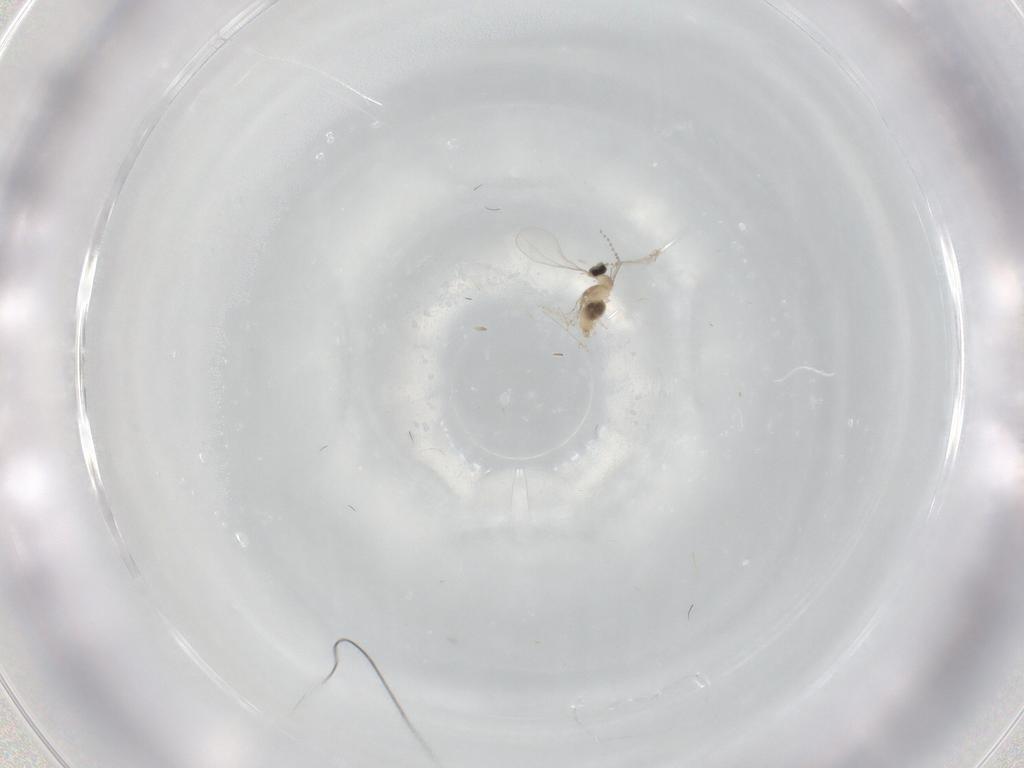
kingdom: Animalia
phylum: Arthropoda
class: Insecta
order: Diptera
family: Cecidomyiidae
